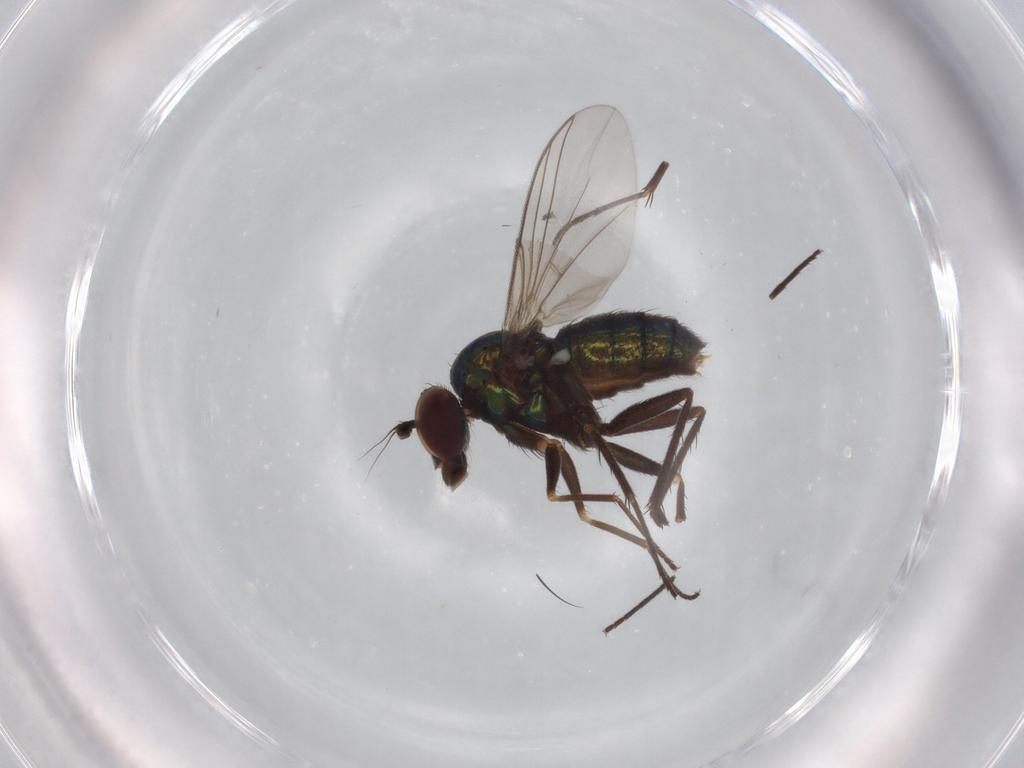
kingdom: Animalia
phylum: Arthropoda
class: Insecta
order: Diptera
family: Dolichopodidae
